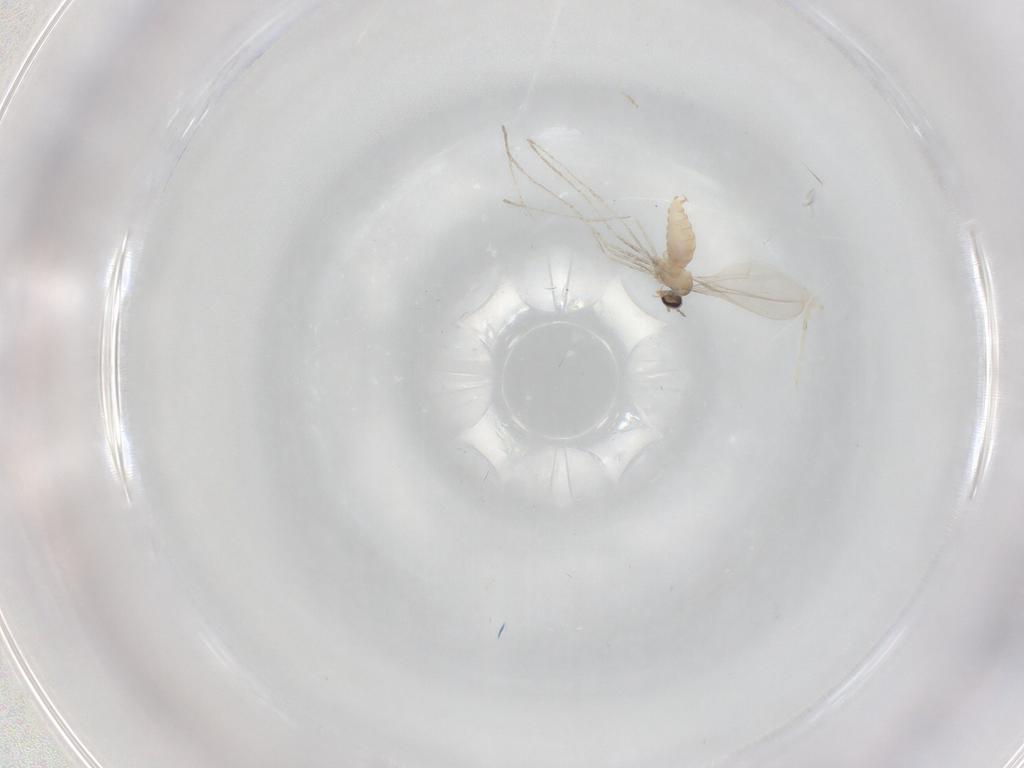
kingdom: Animalia
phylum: Arthropoda
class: Insecta
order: Diptera
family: Cecidomyiidae
